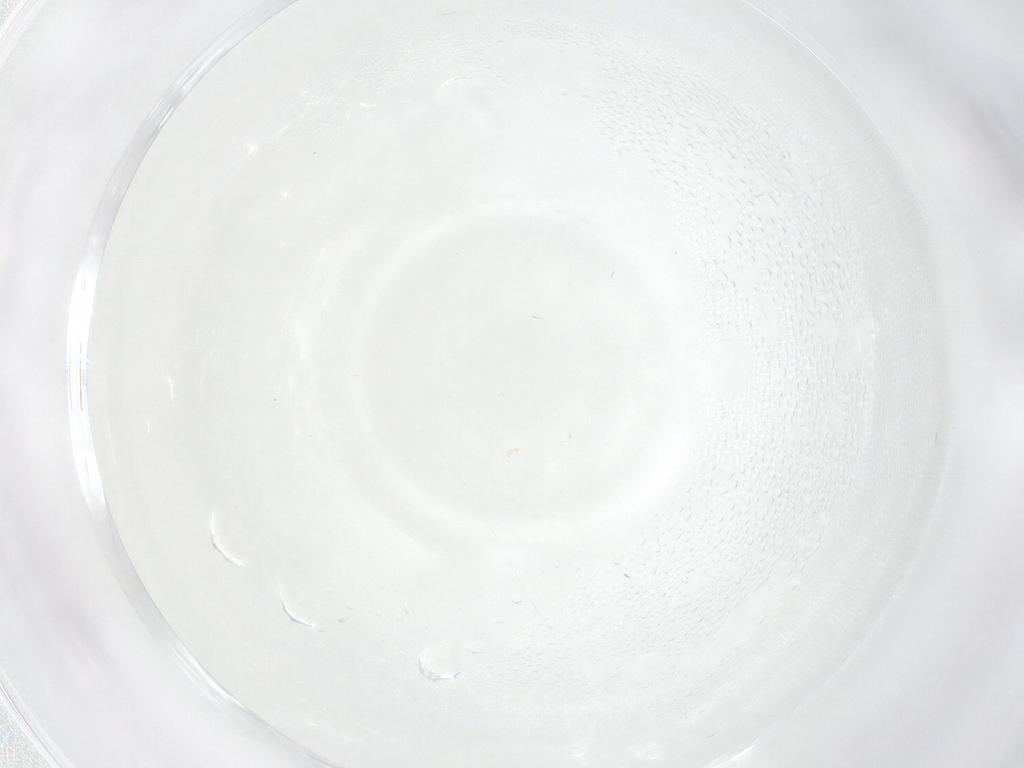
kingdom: Animalia
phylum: Arthropoda
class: Insecta
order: Diptera
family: Cecidomyiidae
